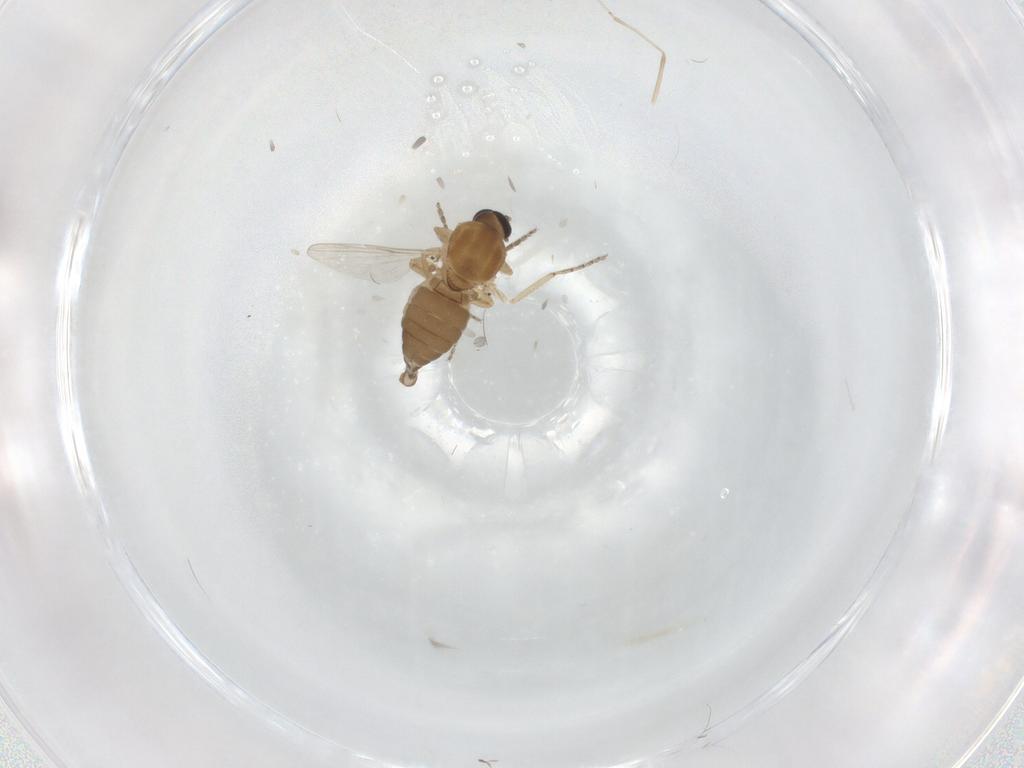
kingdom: Animalia
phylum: Arthropoda
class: Insecta
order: Diptera
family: Ceratopogonidae
